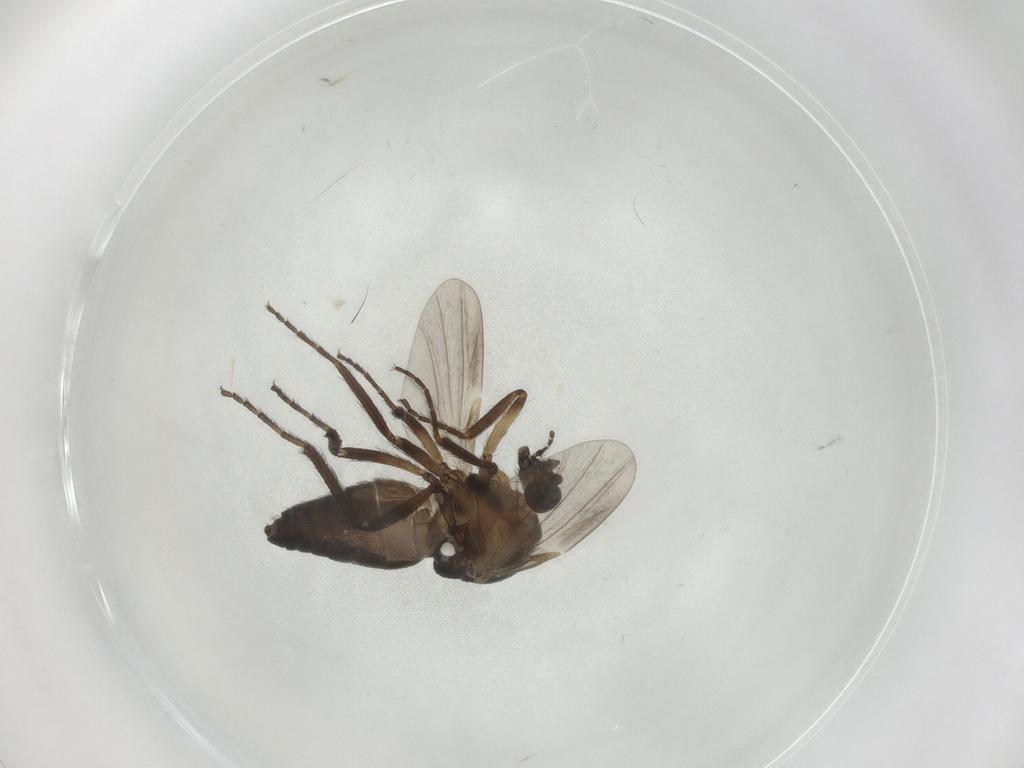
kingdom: Animalia
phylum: Arthropoda
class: Insecta
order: Diptera
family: Ceratopogonidae
